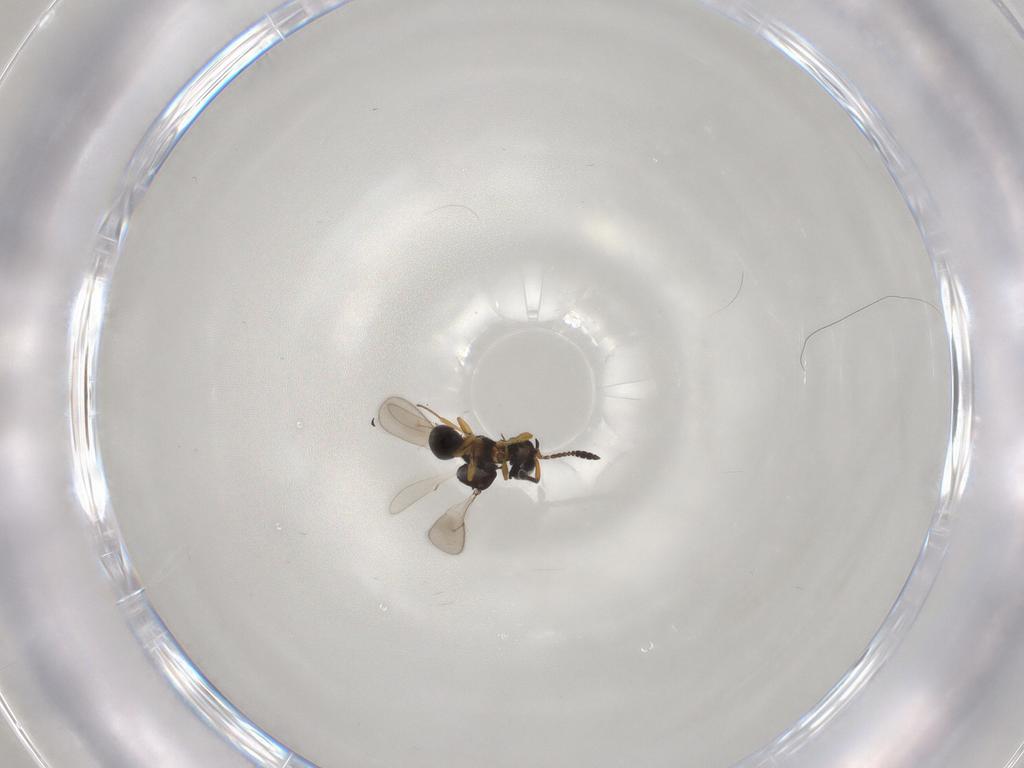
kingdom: Animalia
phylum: Arthropoda
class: Insecta
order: Hymenoptera
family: Scelionidae
